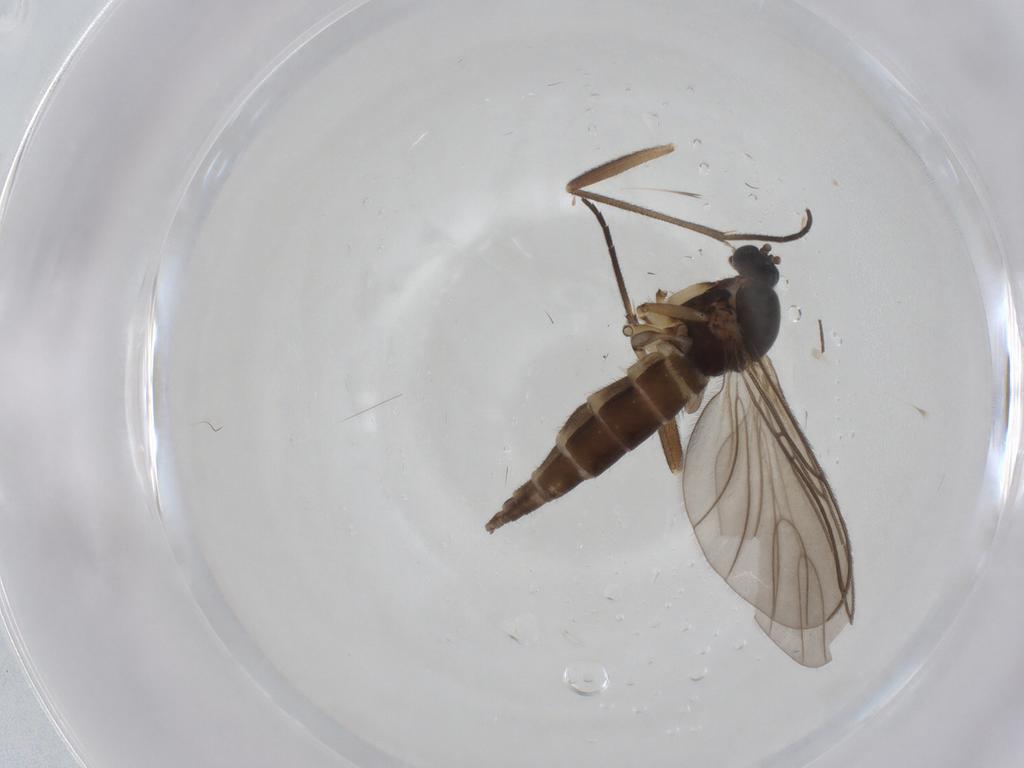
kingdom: Animalia
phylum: Arthropoda
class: Insecta
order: Diptera
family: Sciaridae
